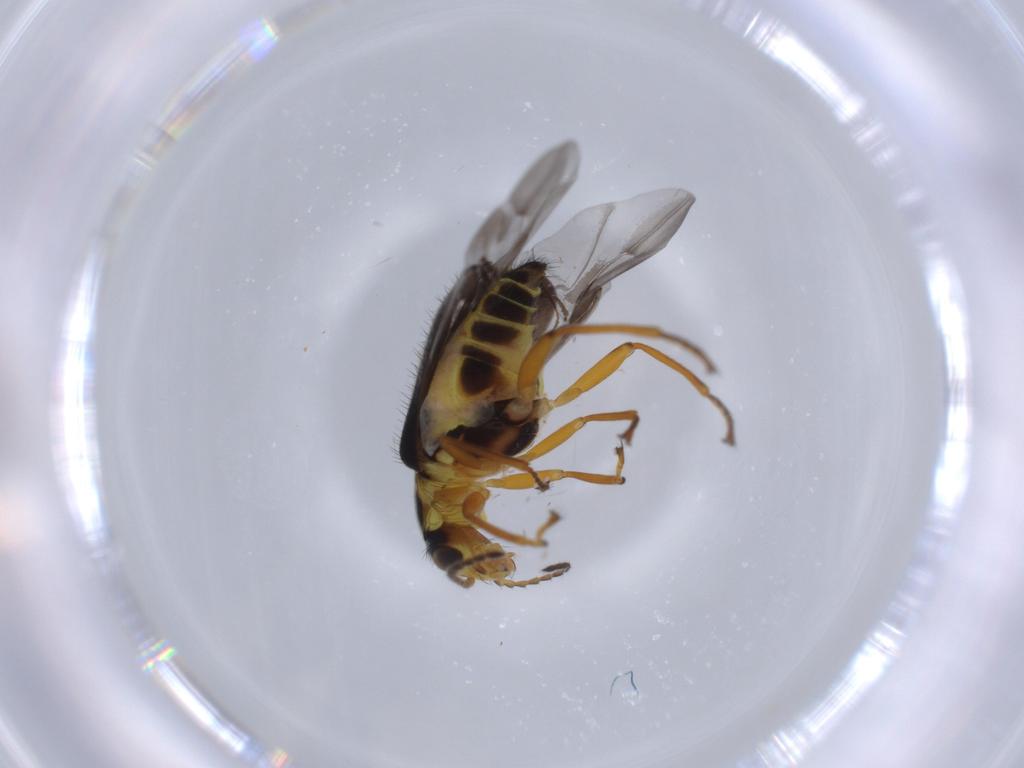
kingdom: Animalia
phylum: Arthropoda
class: Insecta
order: Coleoptera
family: Melyridae
